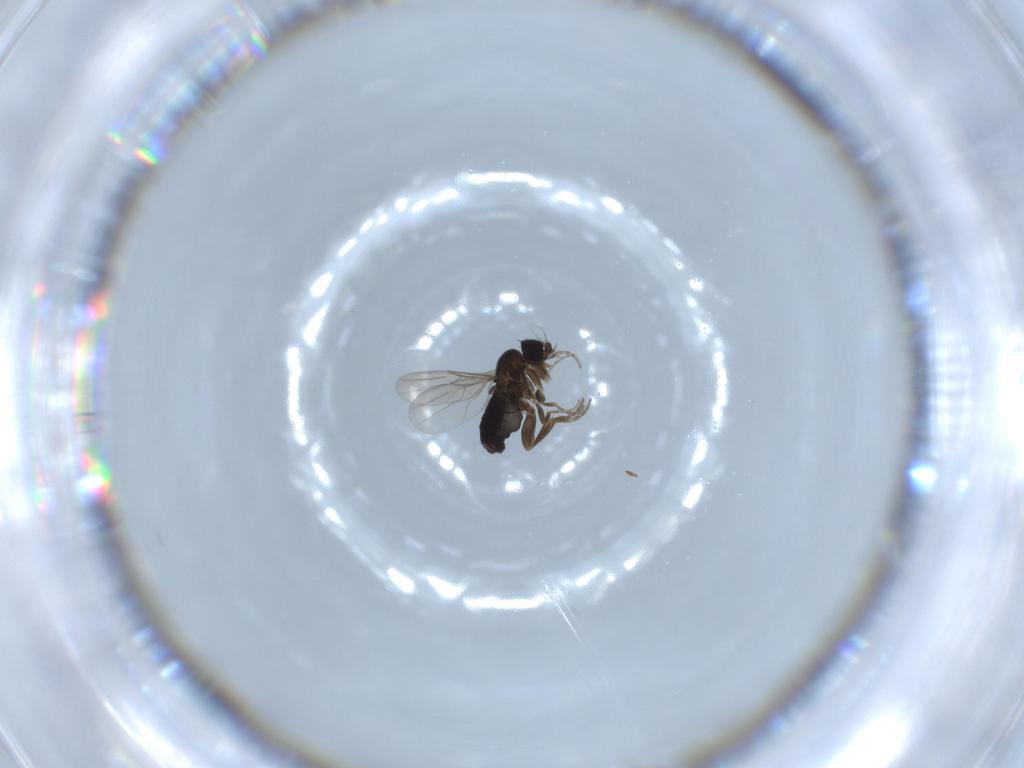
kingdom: Animalia
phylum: Arthropoda
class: Insecta
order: Diptera
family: Phoridae
